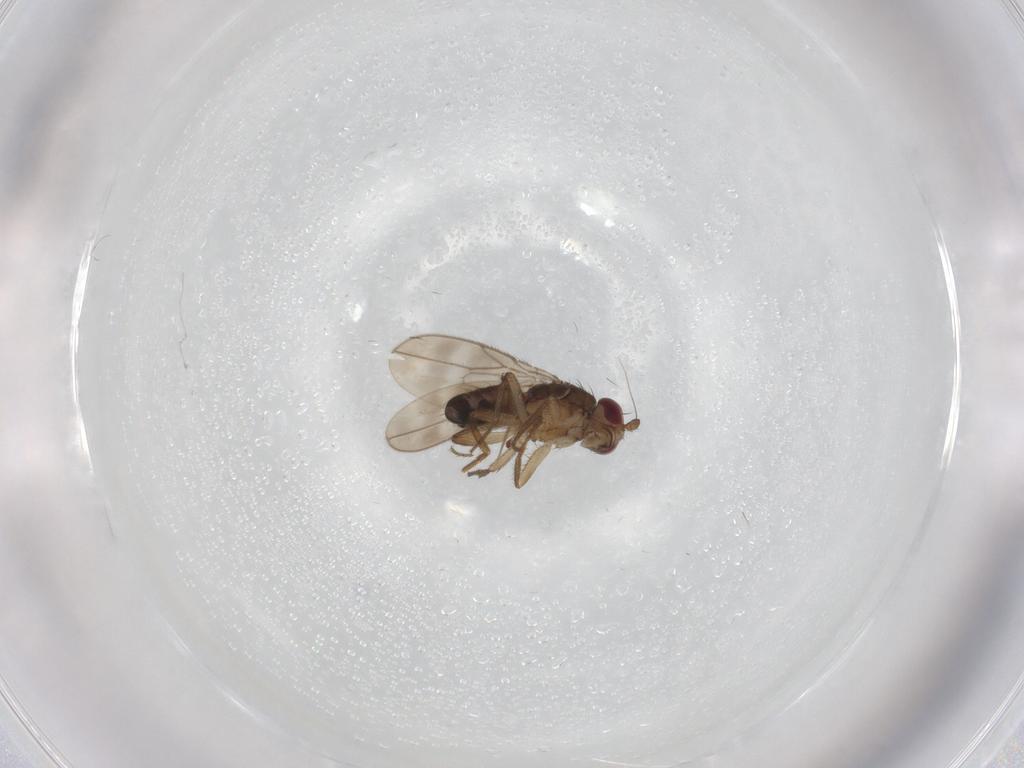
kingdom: Animalia
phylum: Arthropoda
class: Insecta
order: Diptera
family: Sphaeroceridae
